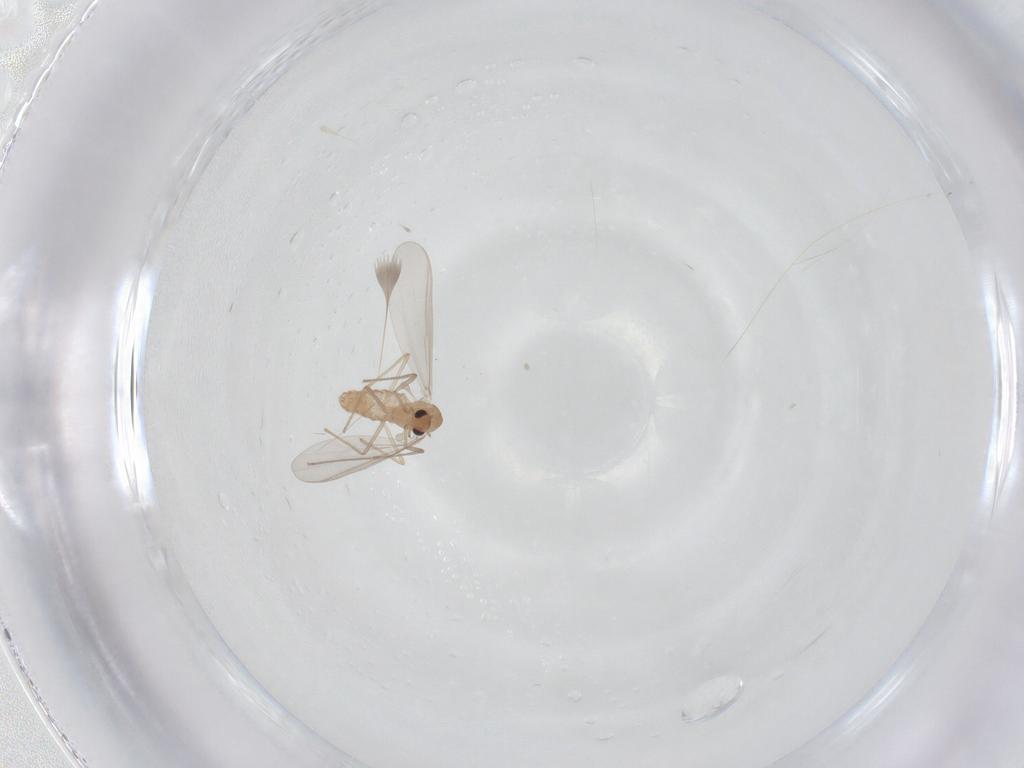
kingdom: Animalia
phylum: Arthropoda
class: Insecta
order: Diptera
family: Chironomidae
